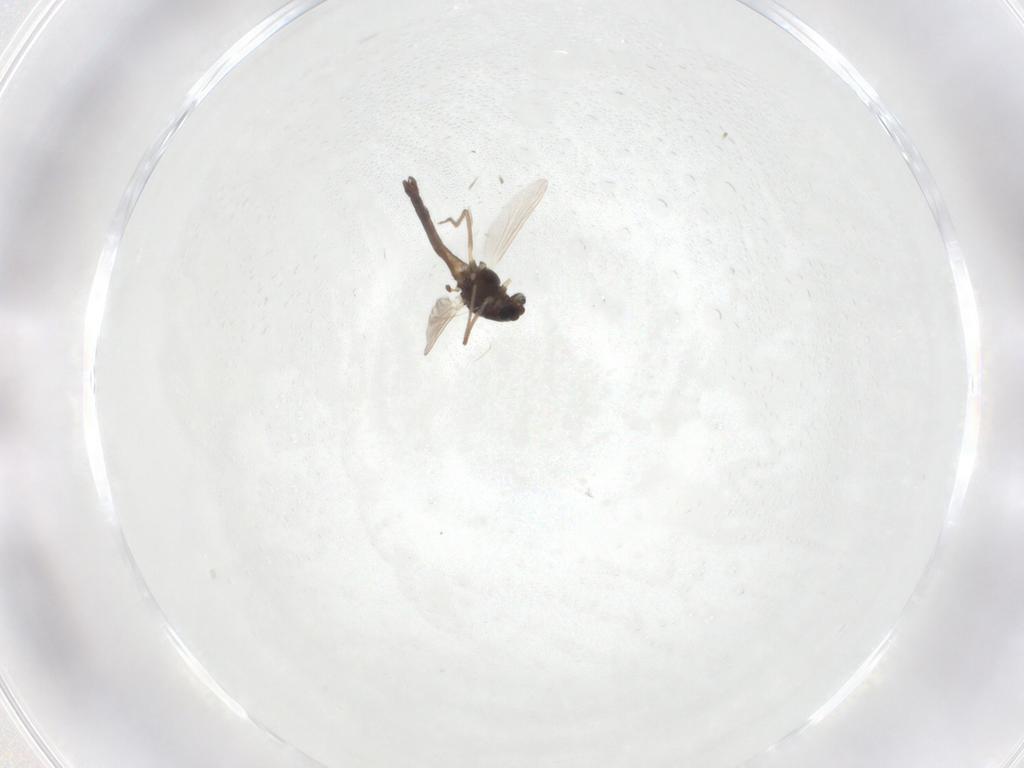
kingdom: Animalia
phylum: Arthropoda
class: Insecta
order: Diptera
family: Chironomidae
